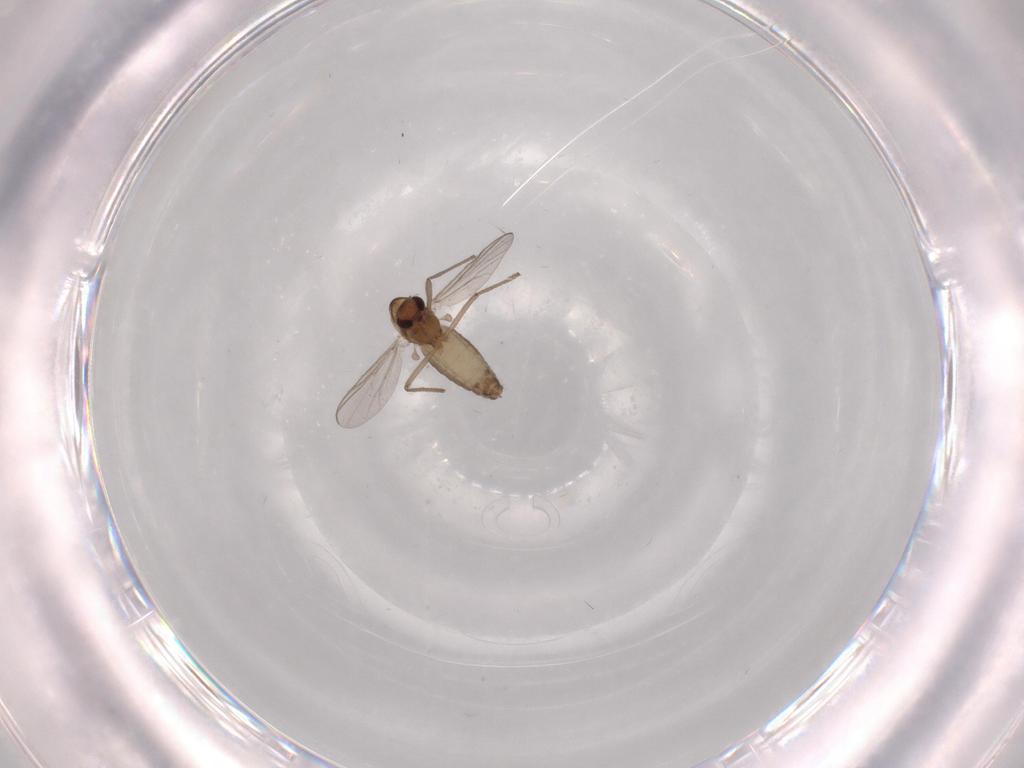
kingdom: Animalia
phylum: Arthropoda
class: Insecta
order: Diptera
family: Chironomidae
